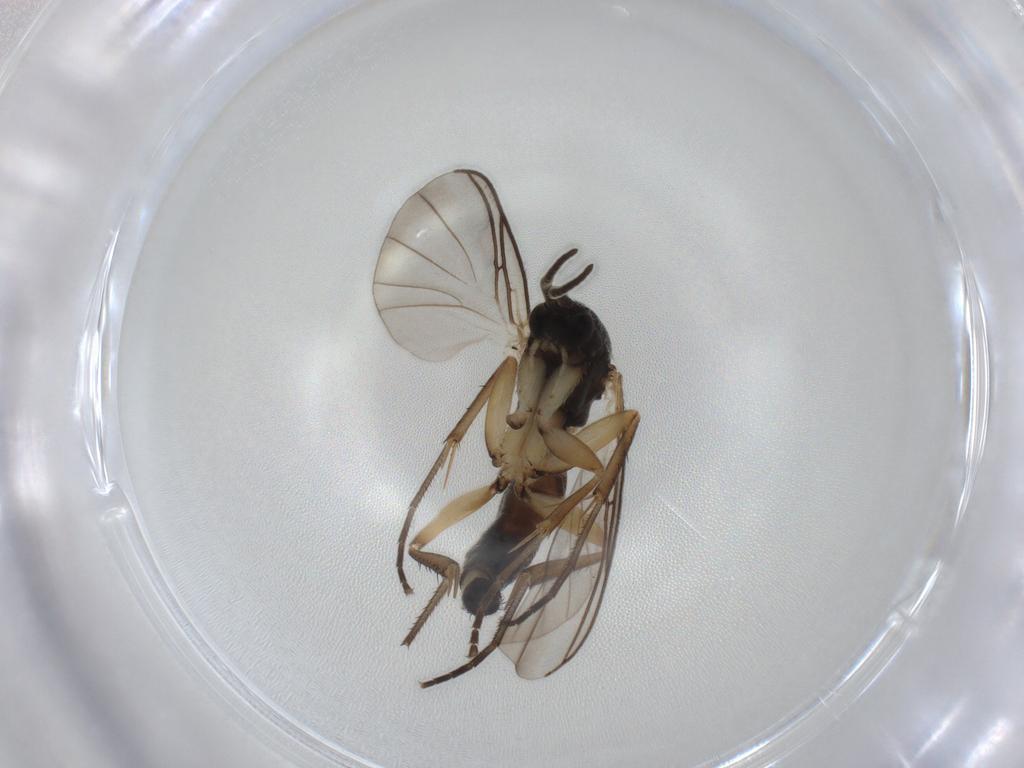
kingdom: Animalia
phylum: Arthropoda
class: Insecta
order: Diptera
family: Mycetophilidae
